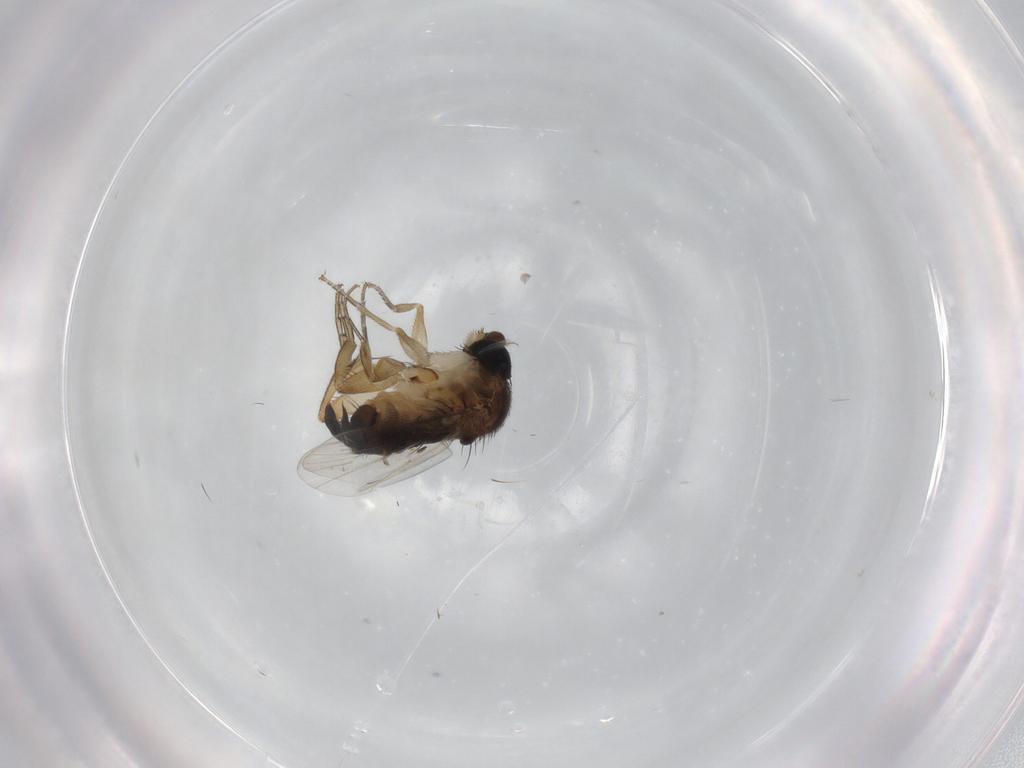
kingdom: Animalia
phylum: Arthropoda
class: Insecta
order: Diptera
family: Phoridae
